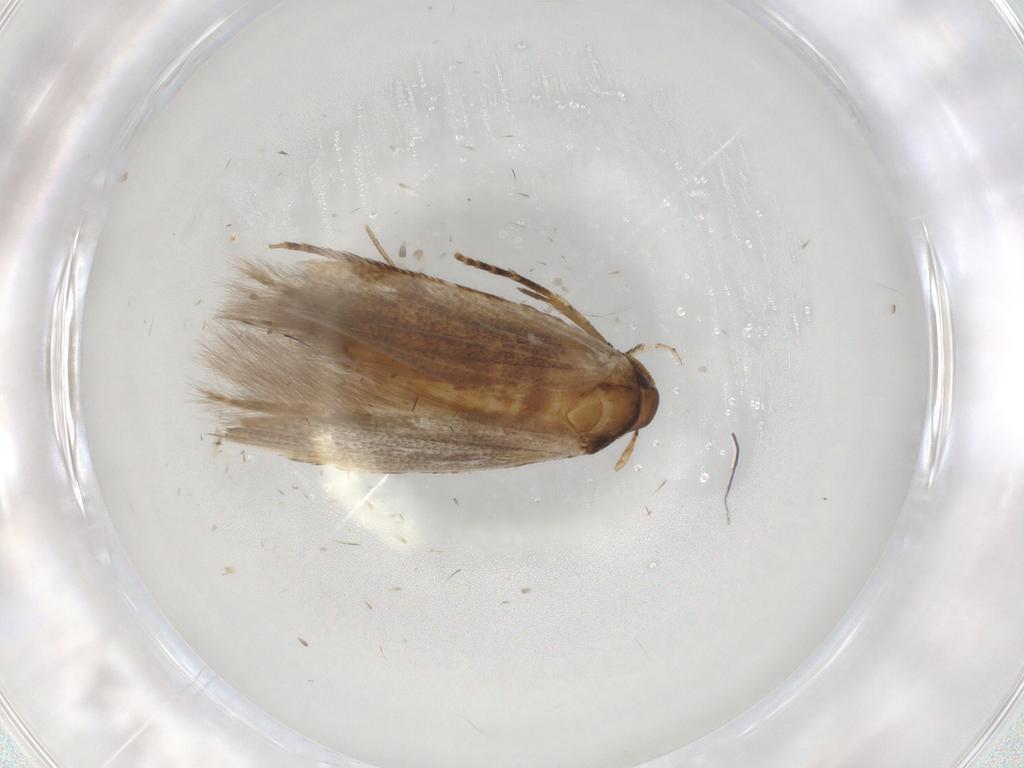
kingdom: Animalia
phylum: Arthropoda
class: Insecta
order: Lepidoptera
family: Cosmopterigidae
